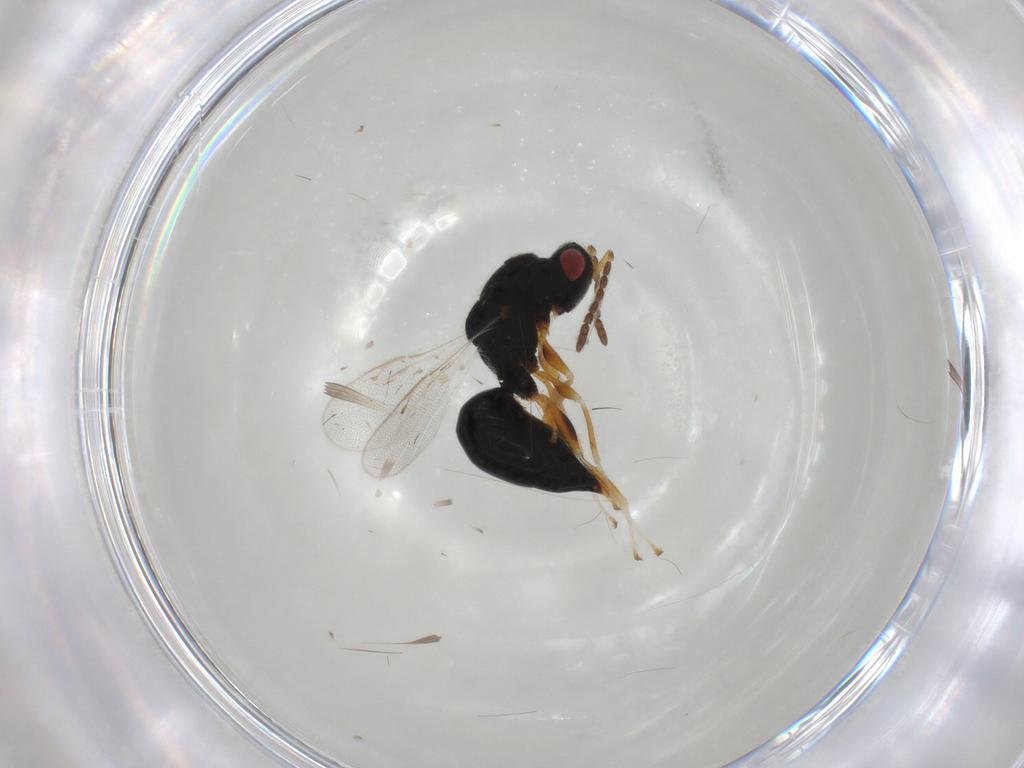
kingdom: Animalia
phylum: Arthropoda
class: Insecta
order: Hymenoptera
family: Eurytomidae
